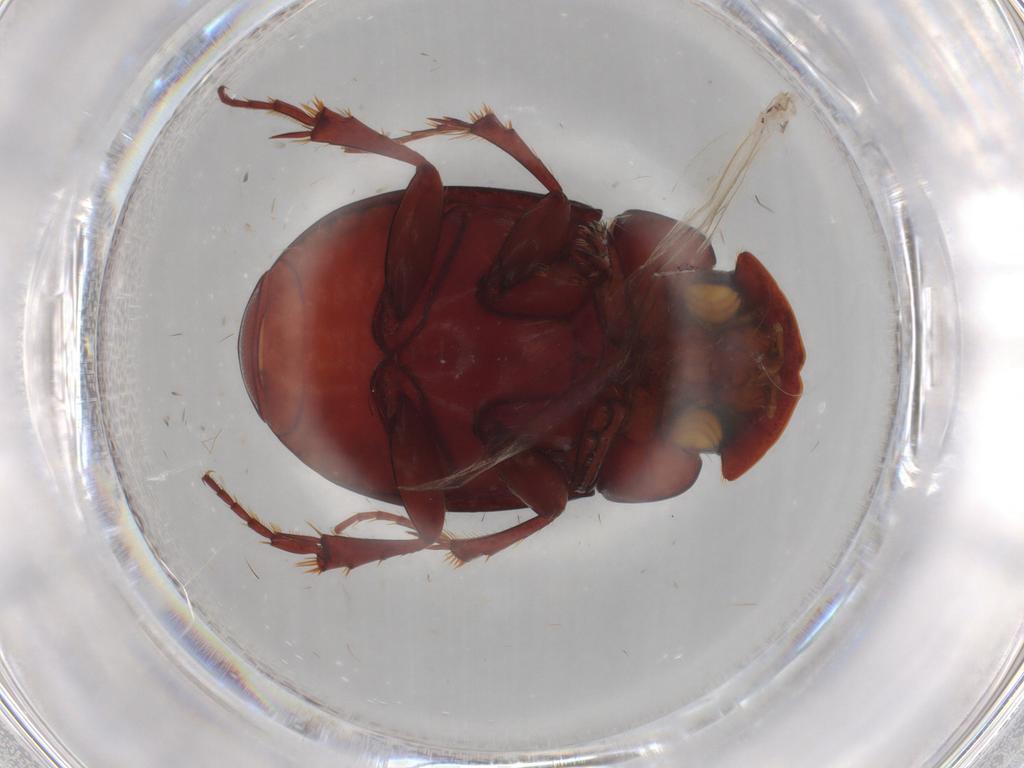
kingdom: Animalia
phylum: Arthropoda
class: Insecta
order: Coleoptera
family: Scarabaeidae
